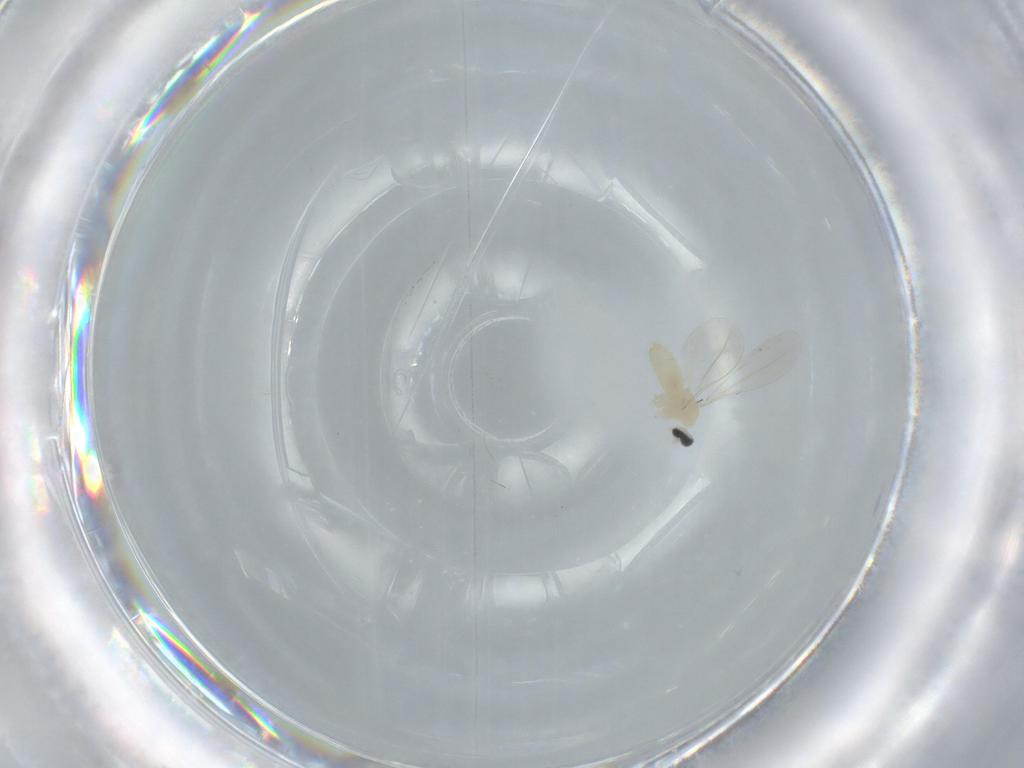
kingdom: Animalia
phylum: Arthropoda
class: Insecta
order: Diptera
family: Cecidomyiidae
